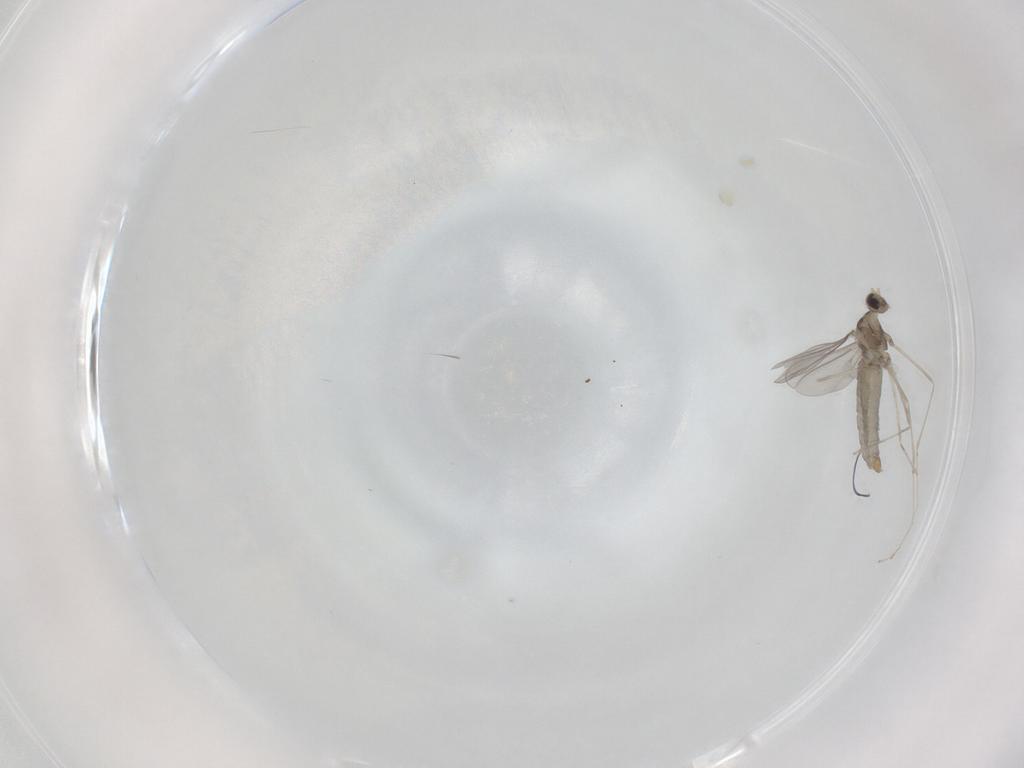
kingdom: Animalia
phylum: Arthropoda
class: Insecta
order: Diptera
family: Cecidomyiidae
